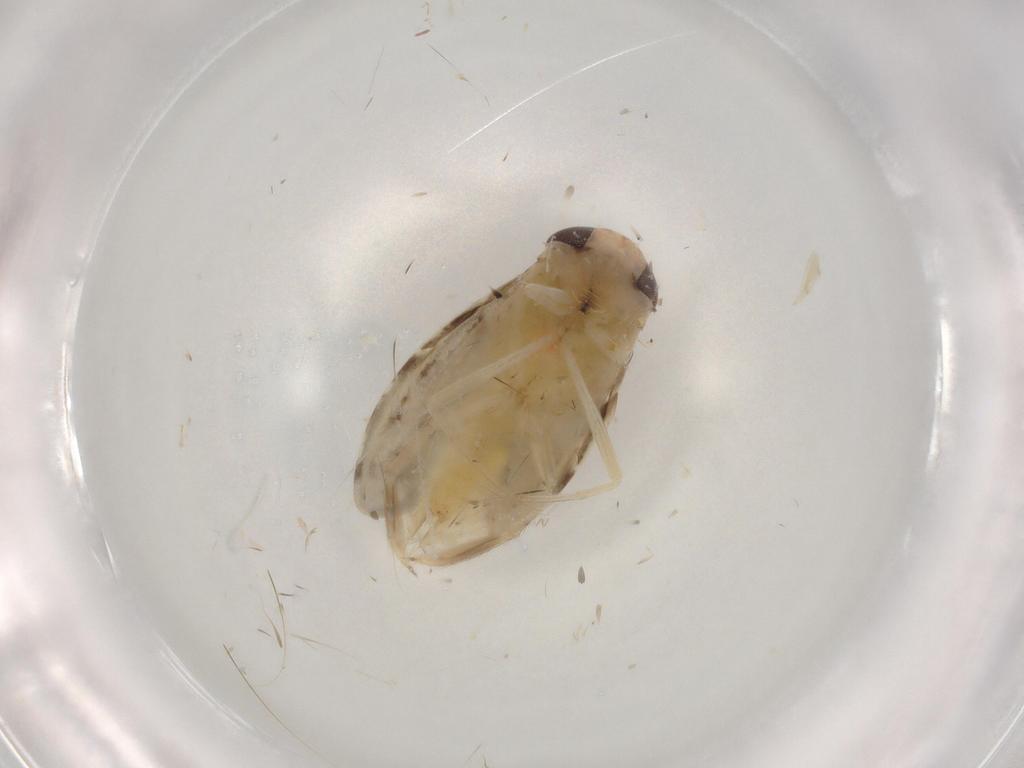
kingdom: Animalia
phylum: Arthropoda
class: Insecta
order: Hemiptera
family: Corixidae
